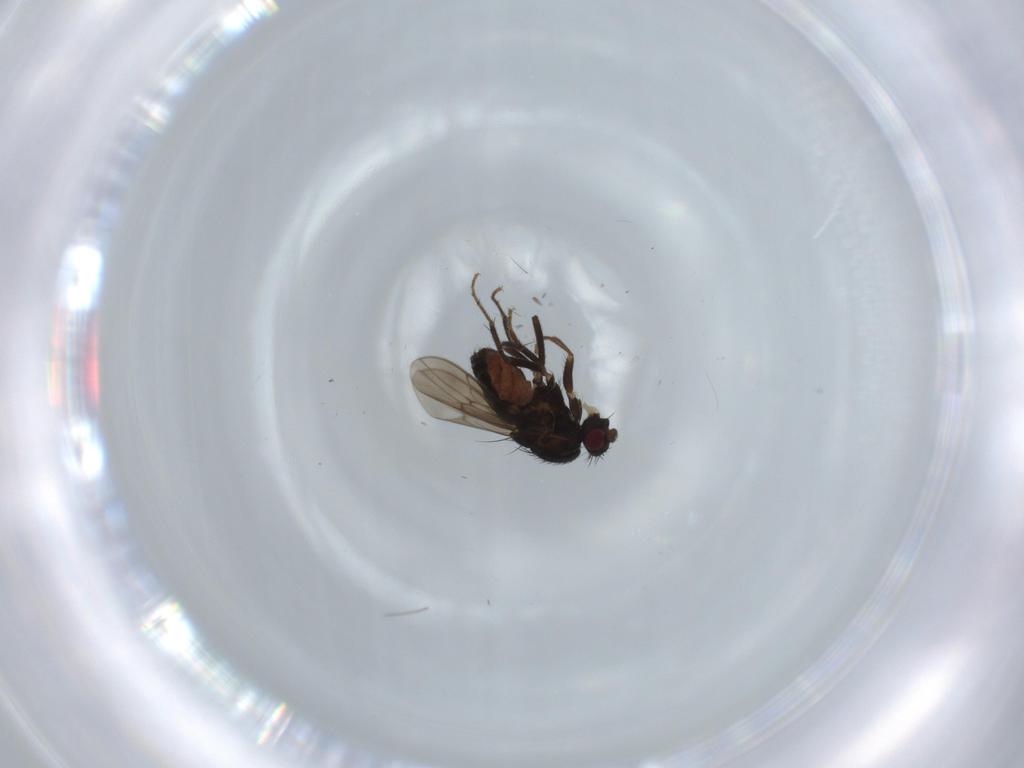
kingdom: Animalia
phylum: Arthropoda
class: Insecta
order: Diptera
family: Sphaeroceridae
